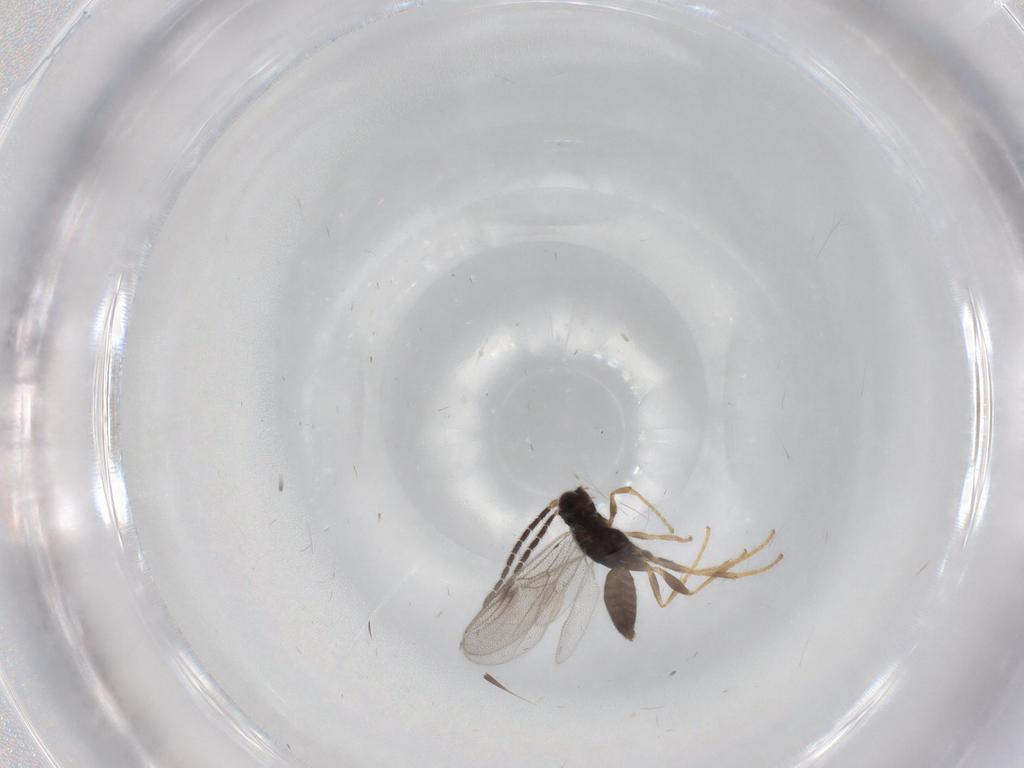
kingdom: Animalia
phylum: Arthropoda
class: Insecta
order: Hymenoptera
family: Dryinidae
